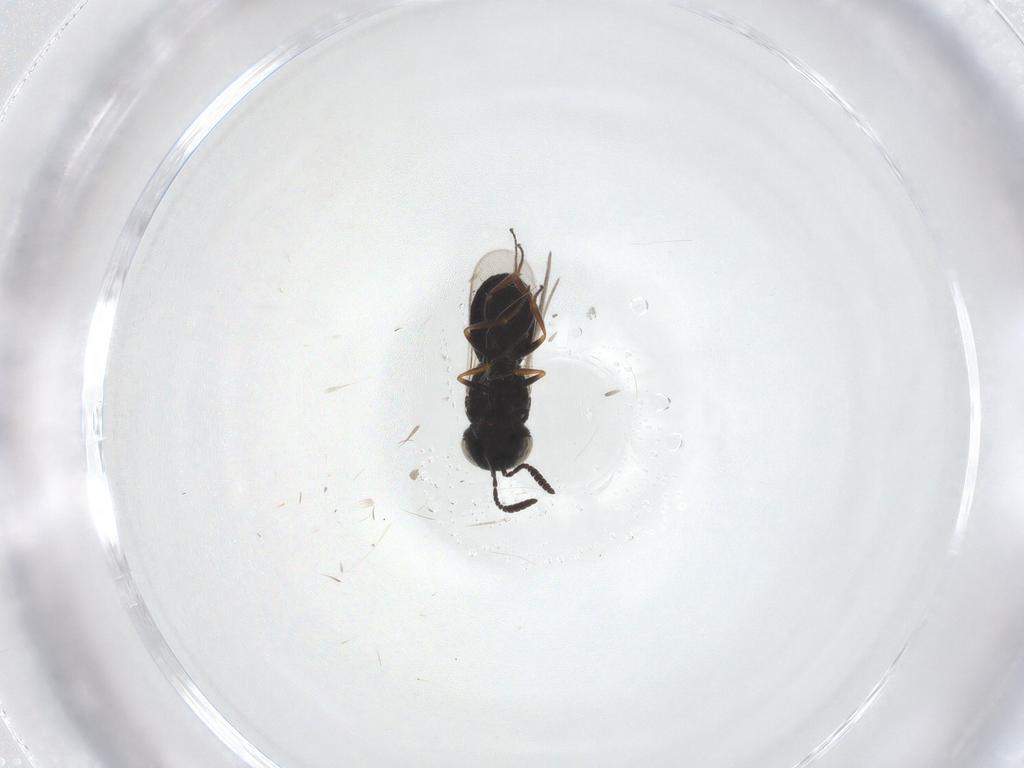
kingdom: Animalia
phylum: Arthropoda
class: Insecta
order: Hymenoptera
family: Scelionidae
